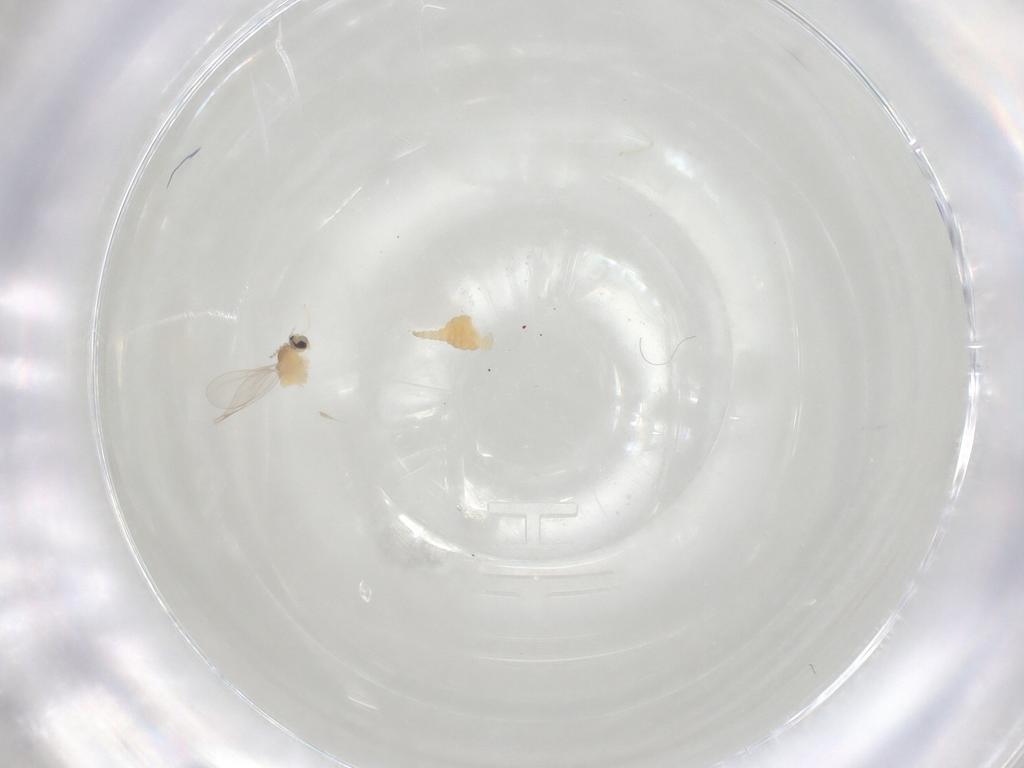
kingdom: Animalia
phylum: Arthropoda
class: Insecta
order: Diptera
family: Cecidomyiidae
